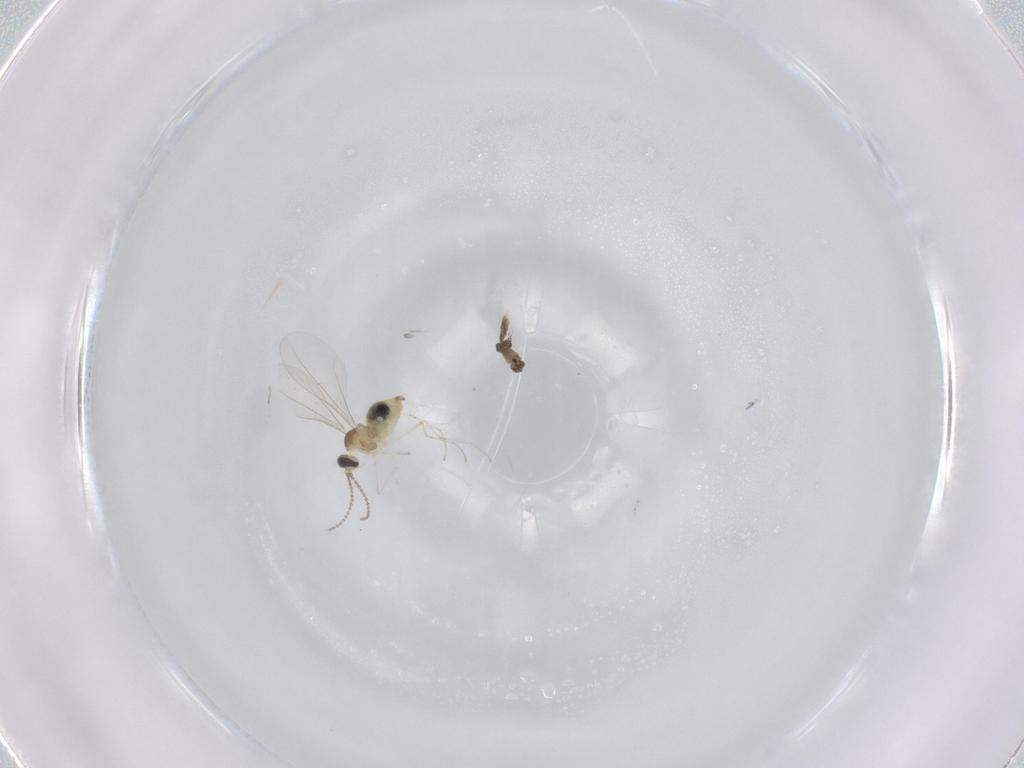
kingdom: Animalia
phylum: Arthropoda
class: Insecta
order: Diptera
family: Cecidomyiidae
